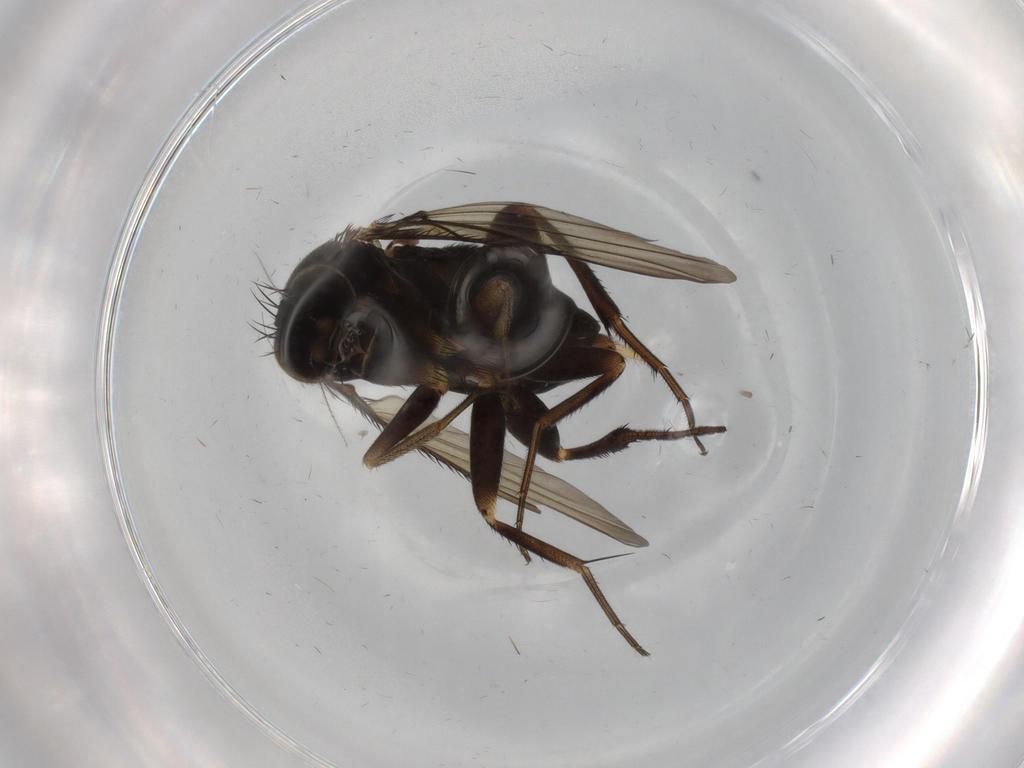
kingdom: Animalia
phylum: Arthropoda
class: Insecta
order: Diptera
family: Phoridae
